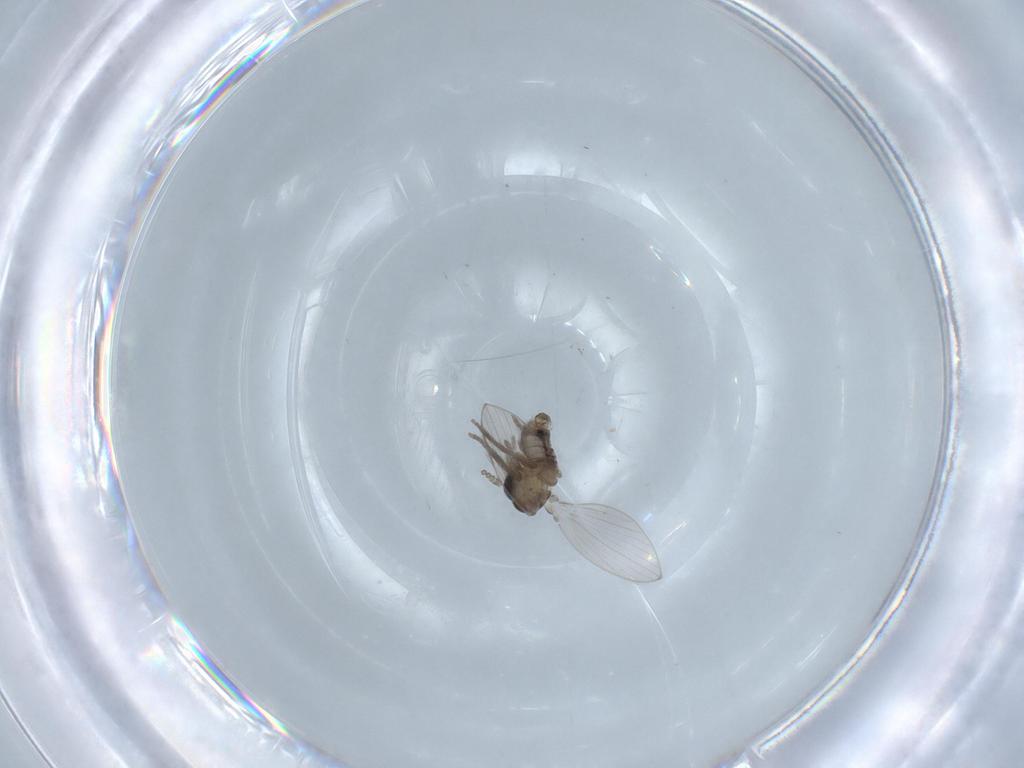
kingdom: Animalia
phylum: Arthropoda
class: Insecta
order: Diptera
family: Psychodidae
